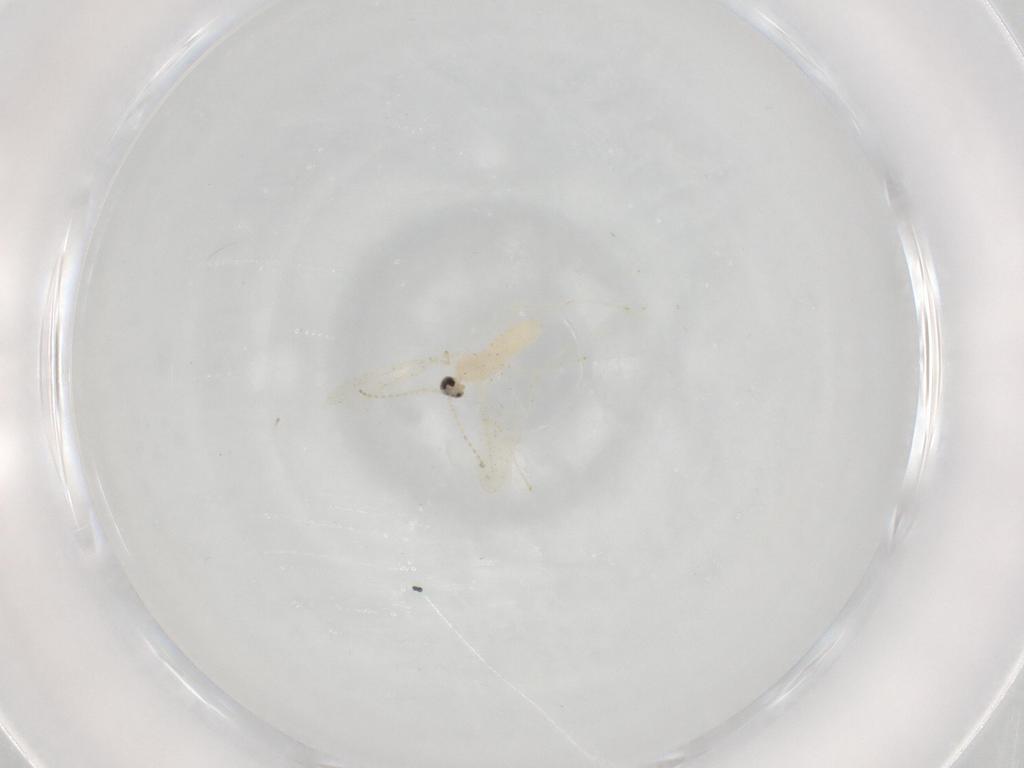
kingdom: Animalia
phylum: Arthropoda
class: Insecta
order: Diptera
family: Cecidomyiidae
